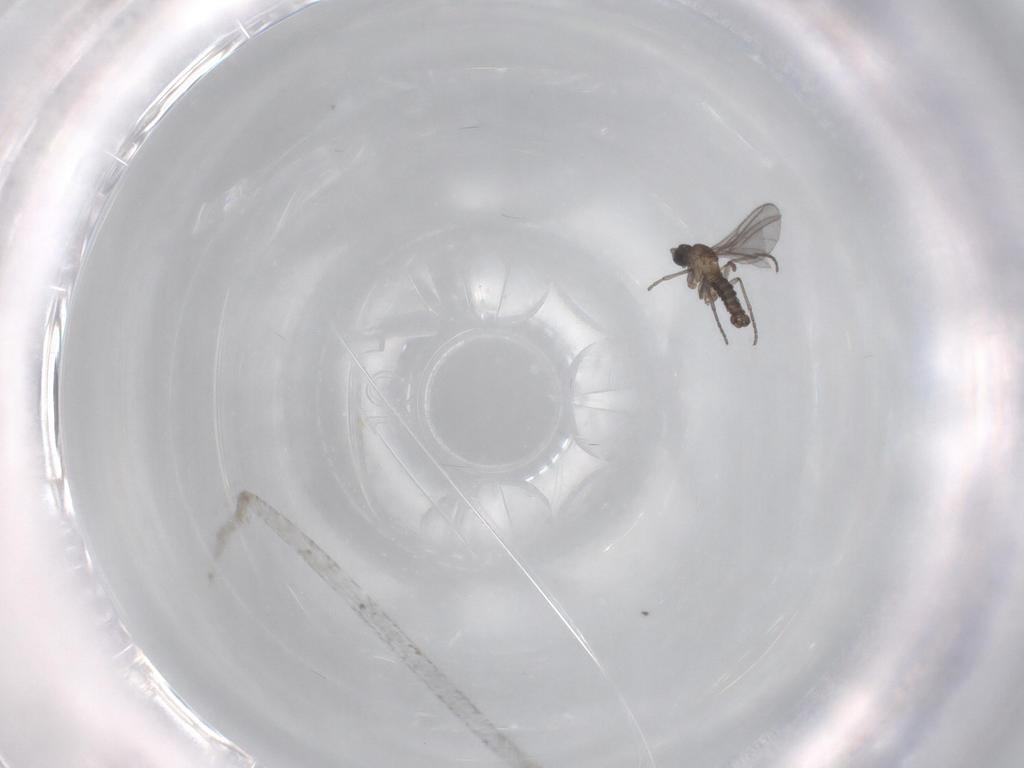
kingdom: Animalia
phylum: Arthropoda
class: Insecta
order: Diptera
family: Sciaridae
